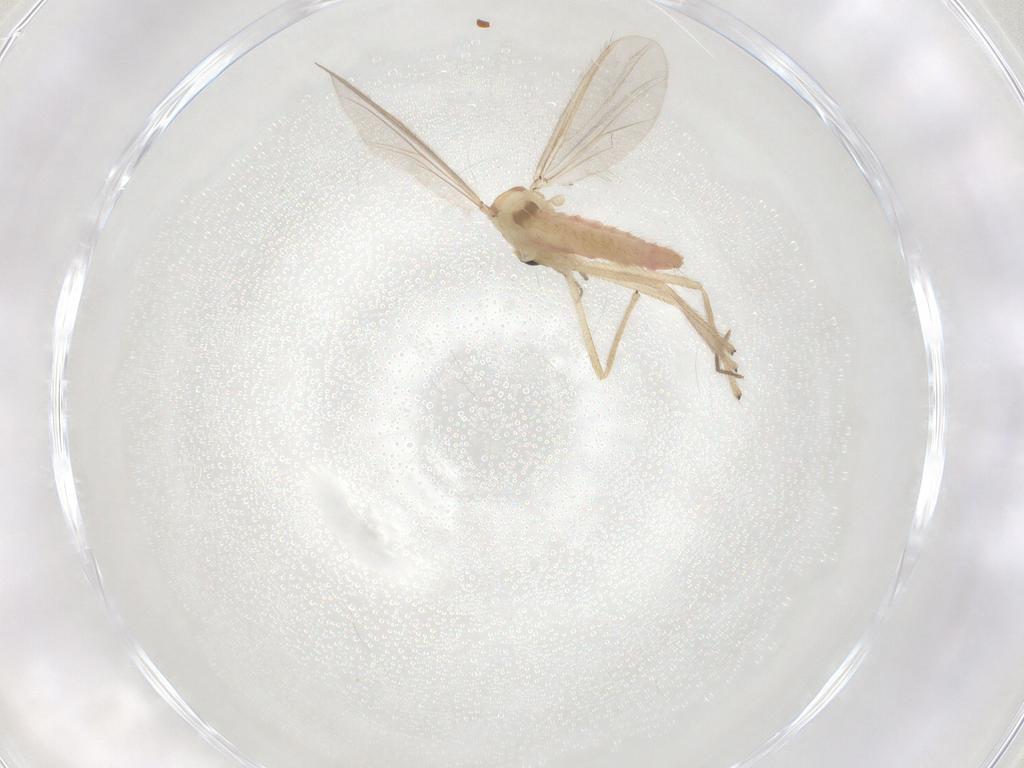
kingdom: Animalia
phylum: Arthropoda
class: Insecta
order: Diptera
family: Chironomidae
